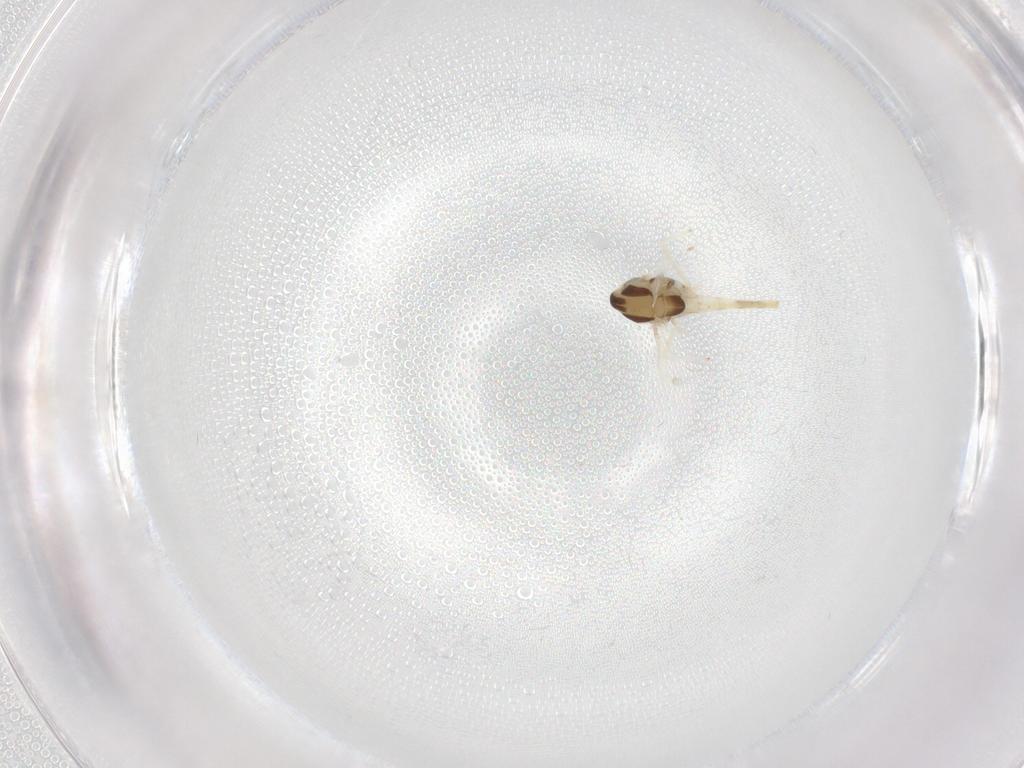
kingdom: Animalia
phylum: Arthropoda
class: Insecta
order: Diptera
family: Chironomidae
